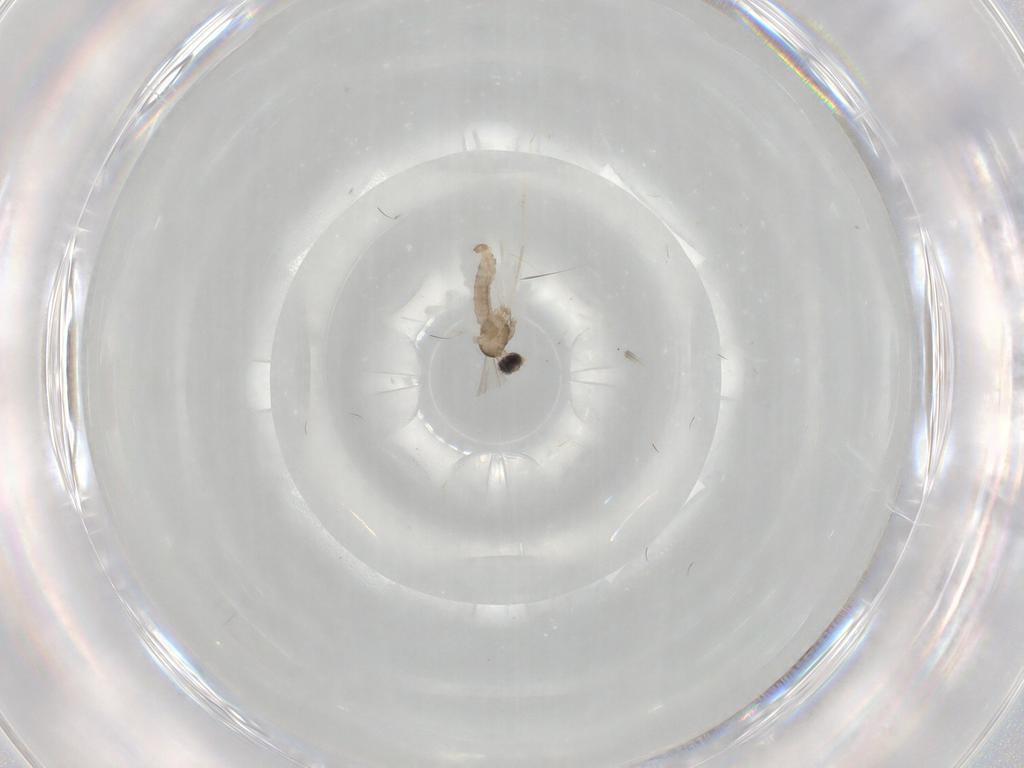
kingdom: Animalia
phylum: Arthropoda
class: Insecta
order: Diptera
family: Cecidomyiidae
